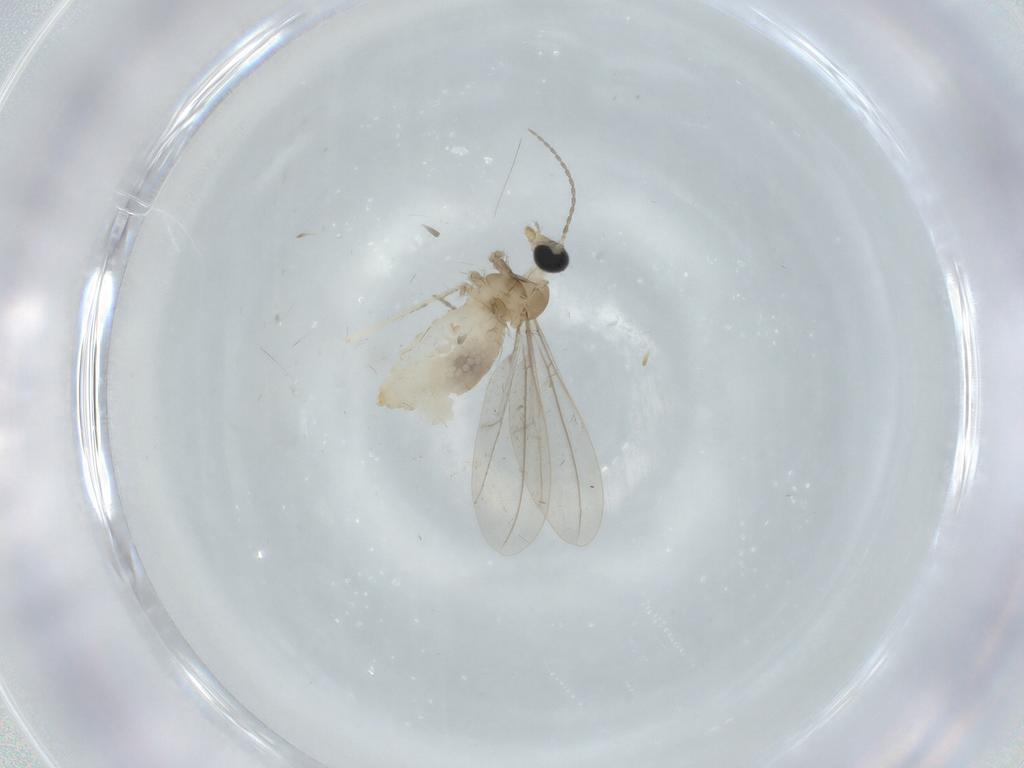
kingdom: Animalia
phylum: Arthropoda
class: Insecta
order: Diptera
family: Cecidomyiidae
